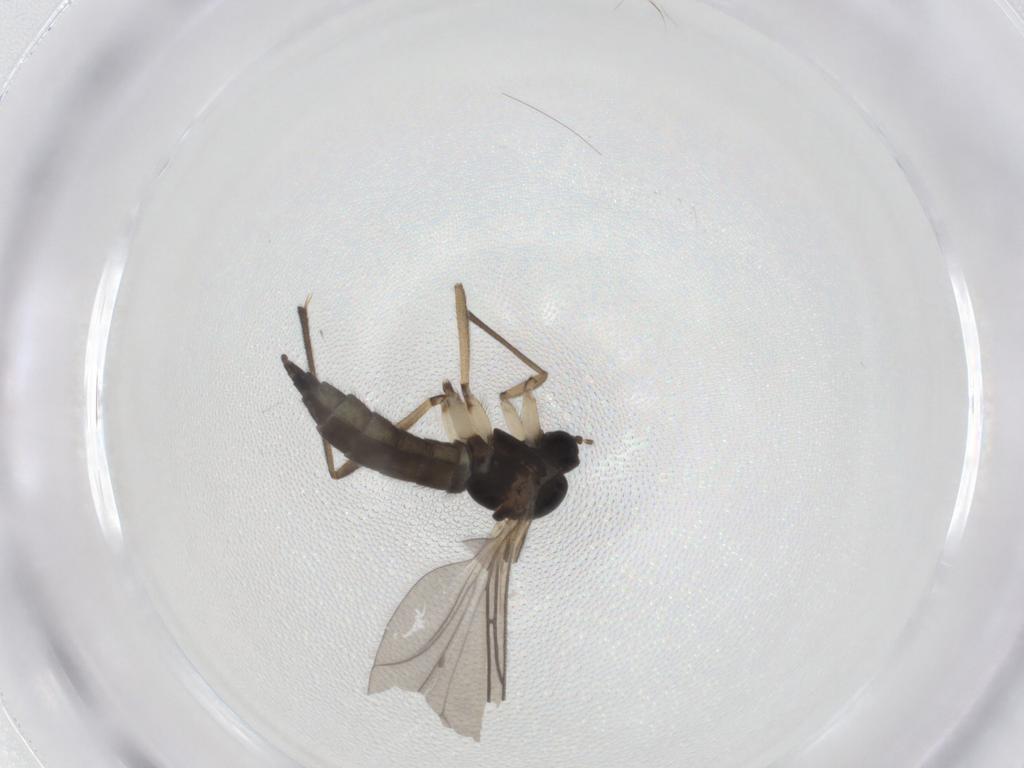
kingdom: Animalia
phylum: Arthropoda
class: Insecta
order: Diptera
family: Sciaridae
